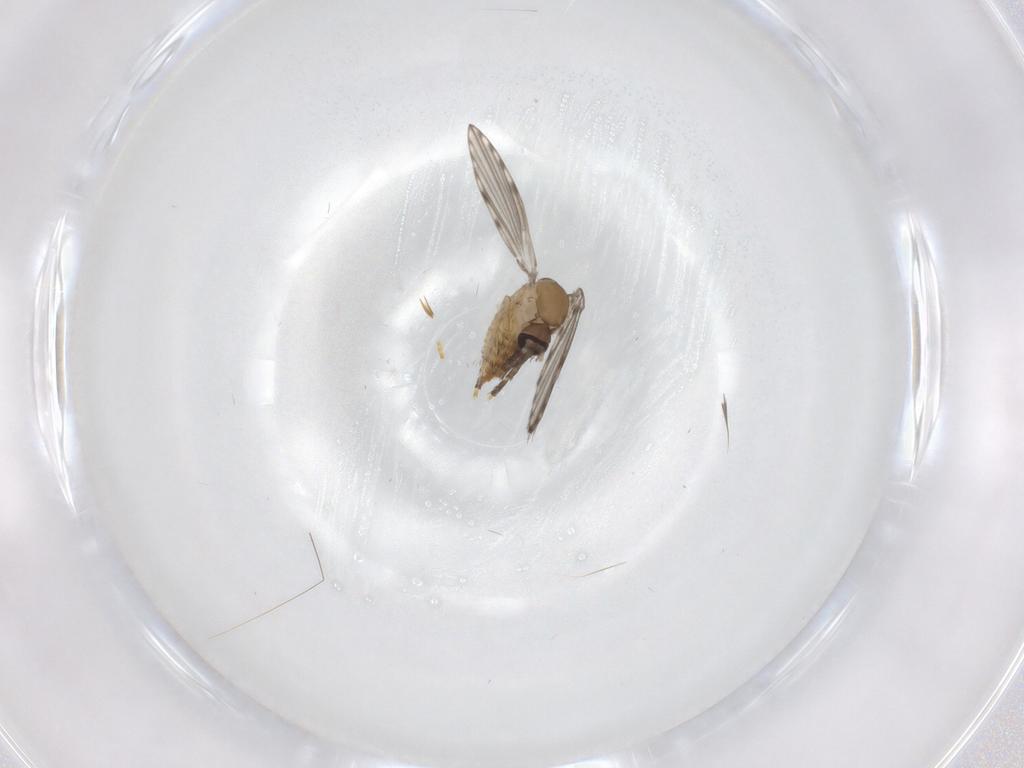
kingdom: Animalia
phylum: Arthropoda
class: Insecta
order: Diptera
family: Psychodidae
